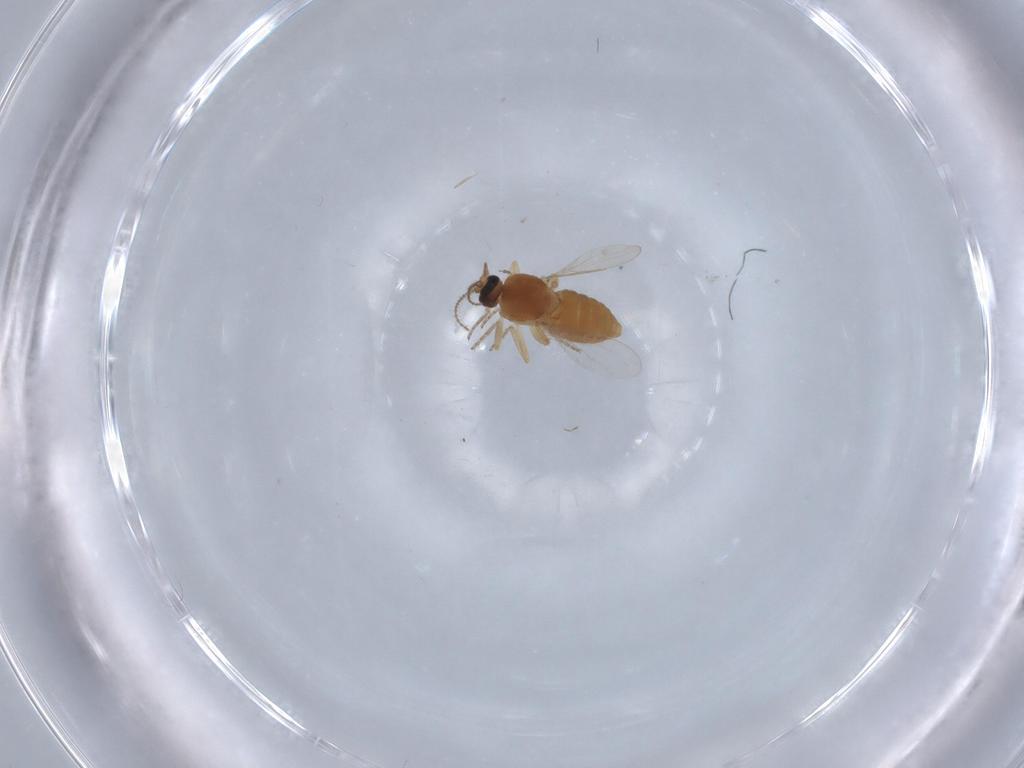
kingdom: Animalia
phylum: Arthropoda
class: Insecta
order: Diptera
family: Ceratopogonidae
